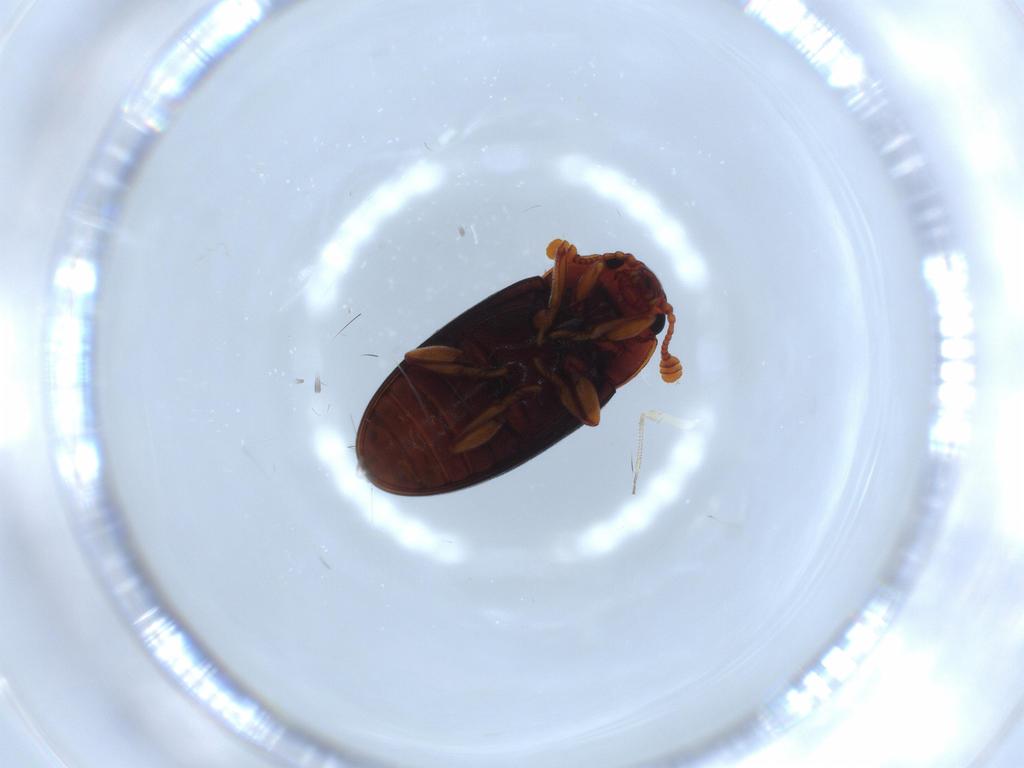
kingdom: Animalia
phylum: Arthropoda
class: Insecta
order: Coleoptera
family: Erotylidae
